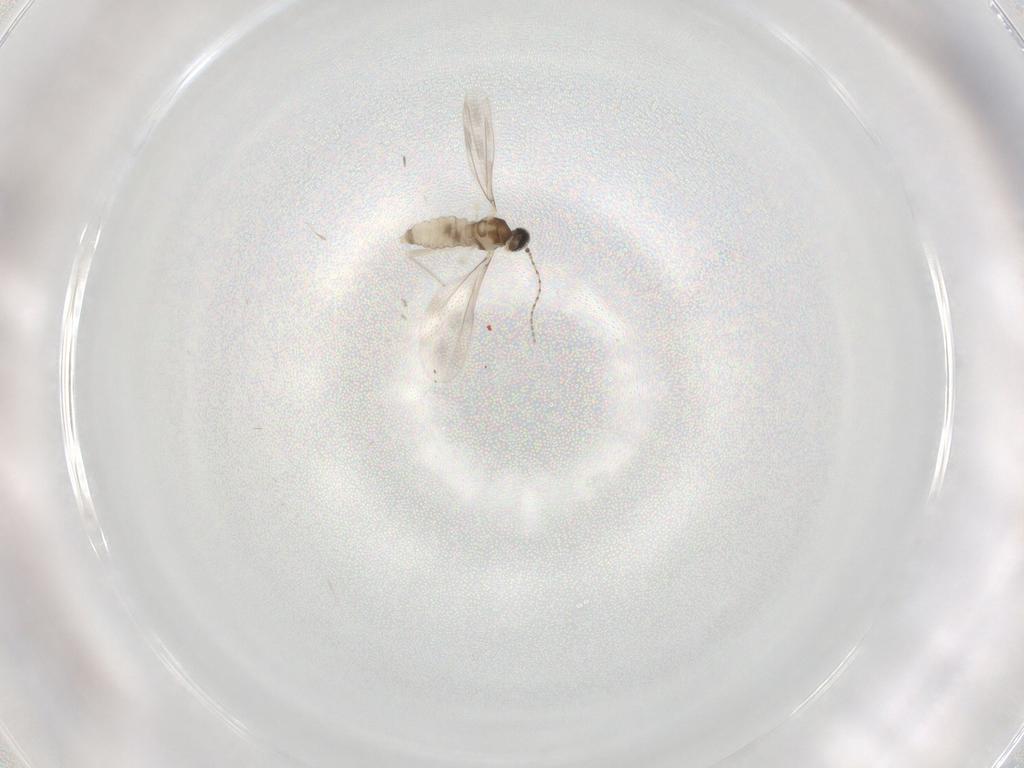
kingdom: Animalia
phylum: Arthropoda
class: Insecta
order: Diptera
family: Cecidomyiidae
